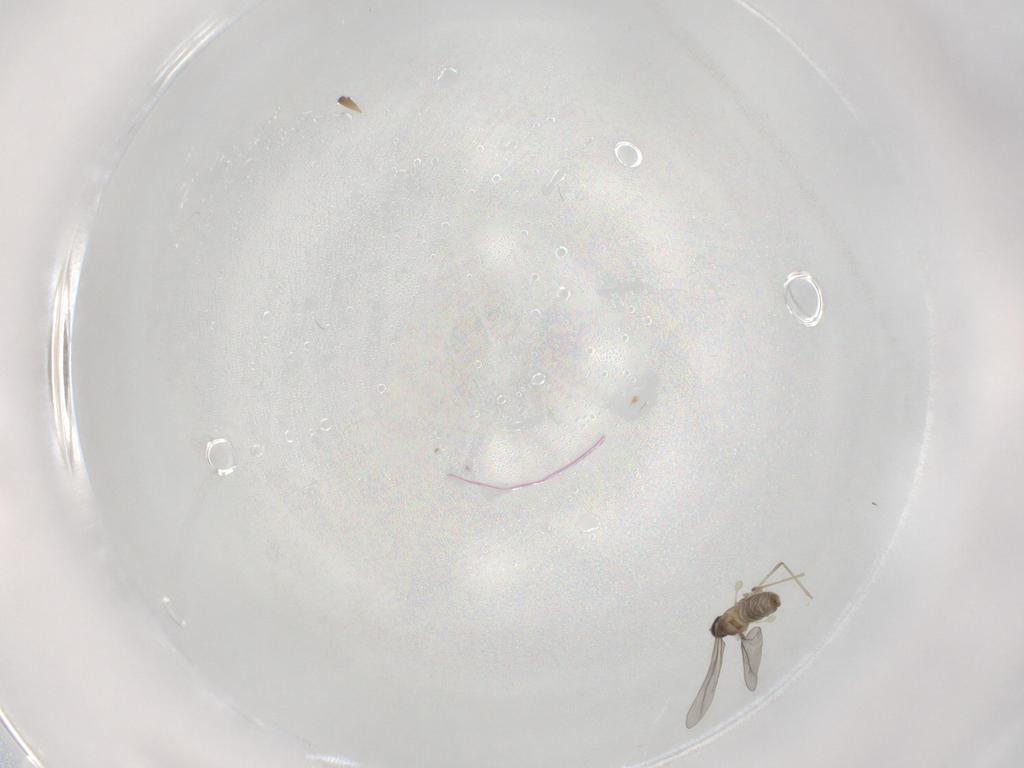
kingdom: Animalia
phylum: Arthropoda
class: Insecta
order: Diptera
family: Cecidomyiidae
